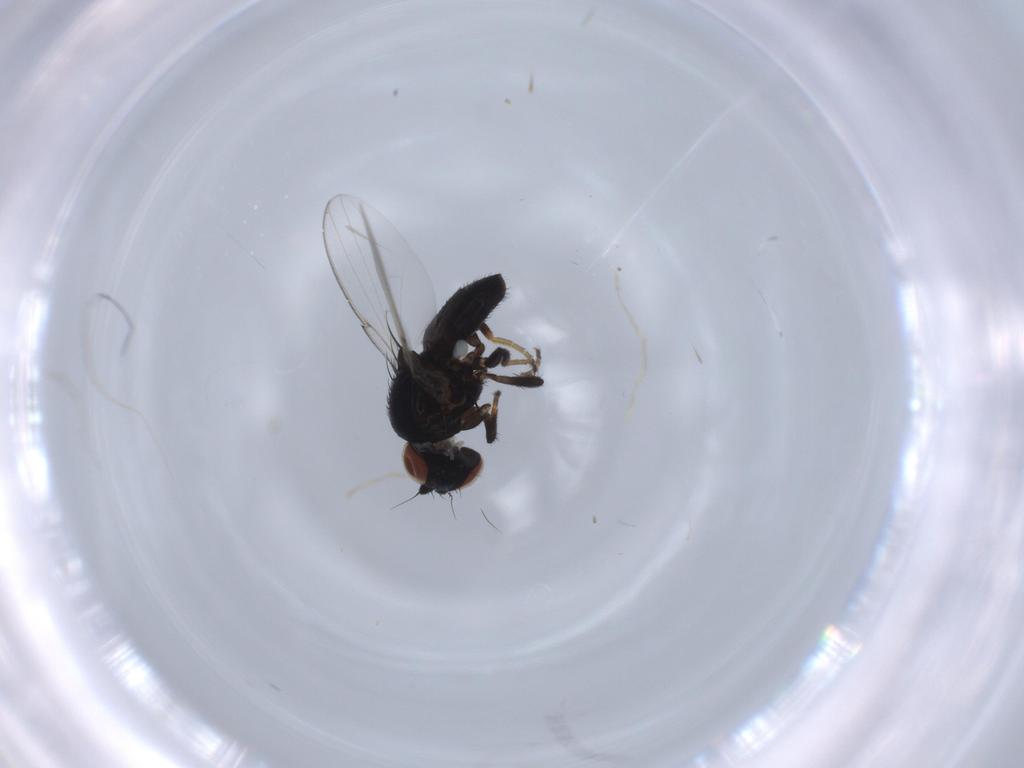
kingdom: Animalia
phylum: Arthropoda
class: Insecta
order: Diptera
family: Milichiidae
